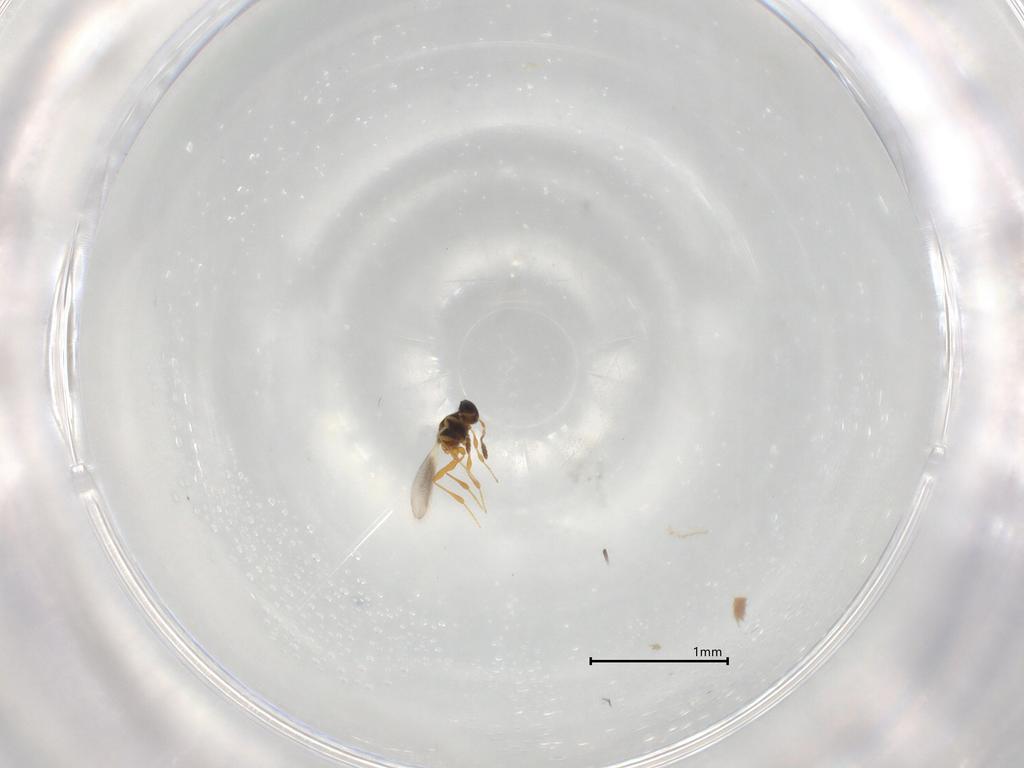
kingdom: Animalia
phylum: Arthropoda
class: Insecta
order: Hymenoptera
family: Platygastridae
